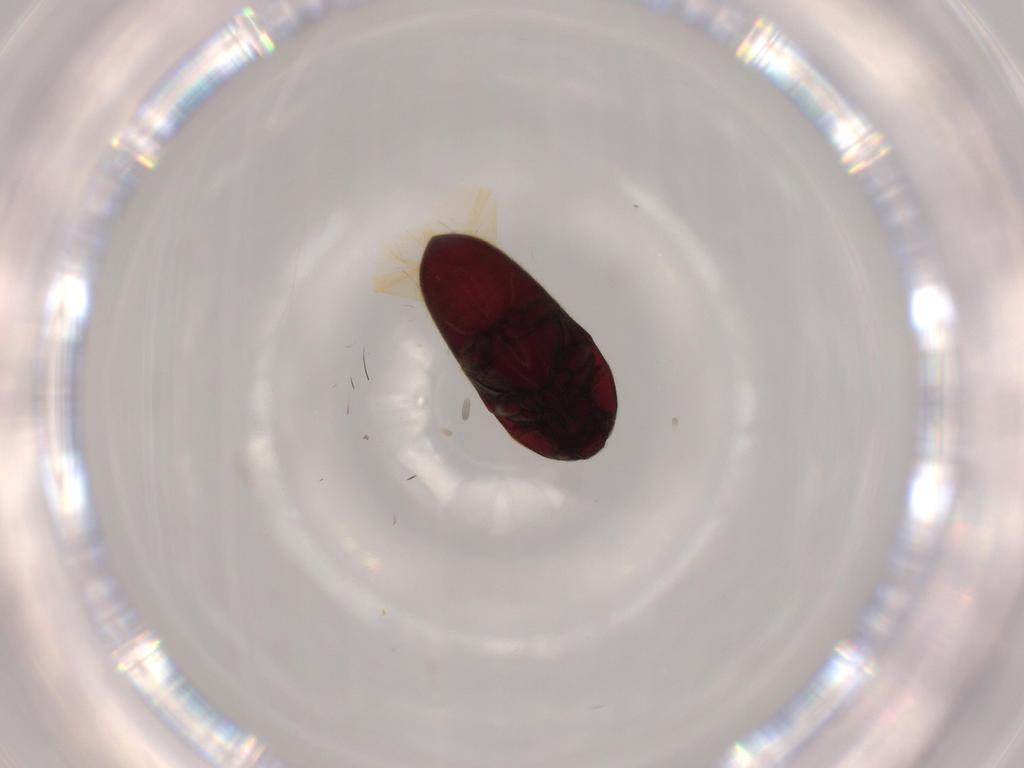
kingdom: Animalia
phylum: Arthropoda
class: Insecta
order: Coleoptera
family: Throscidae
